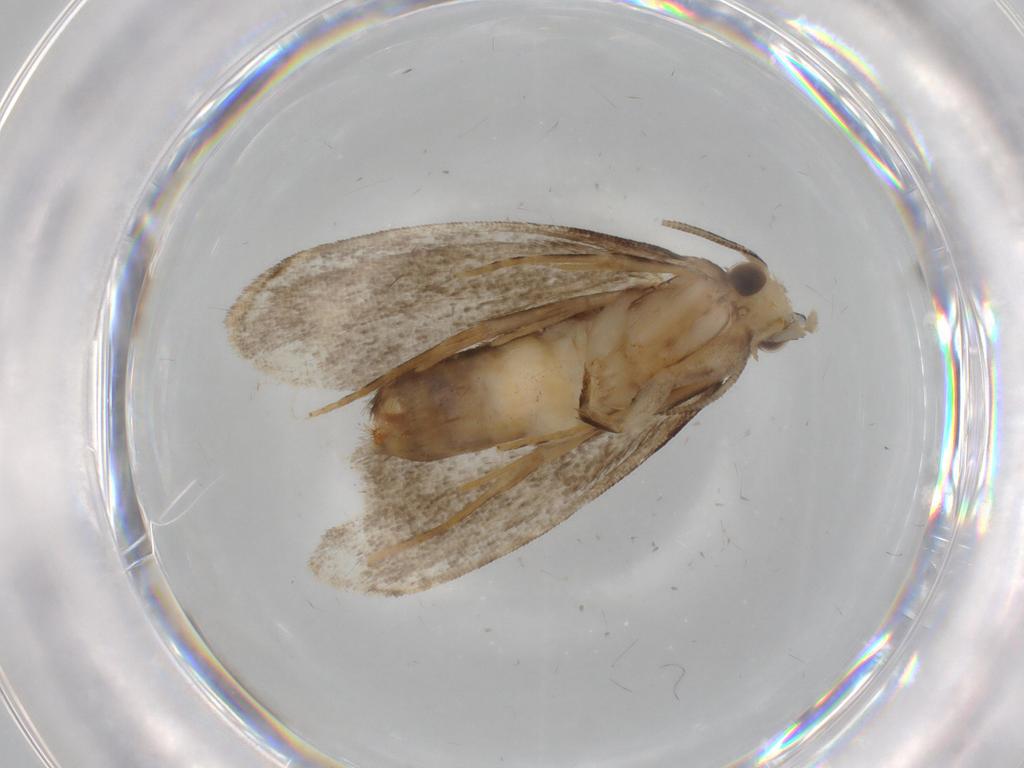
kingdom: Animalia
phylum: Arthropoda
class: Insecta
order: Lepidoptera
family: Dryadaulidae
